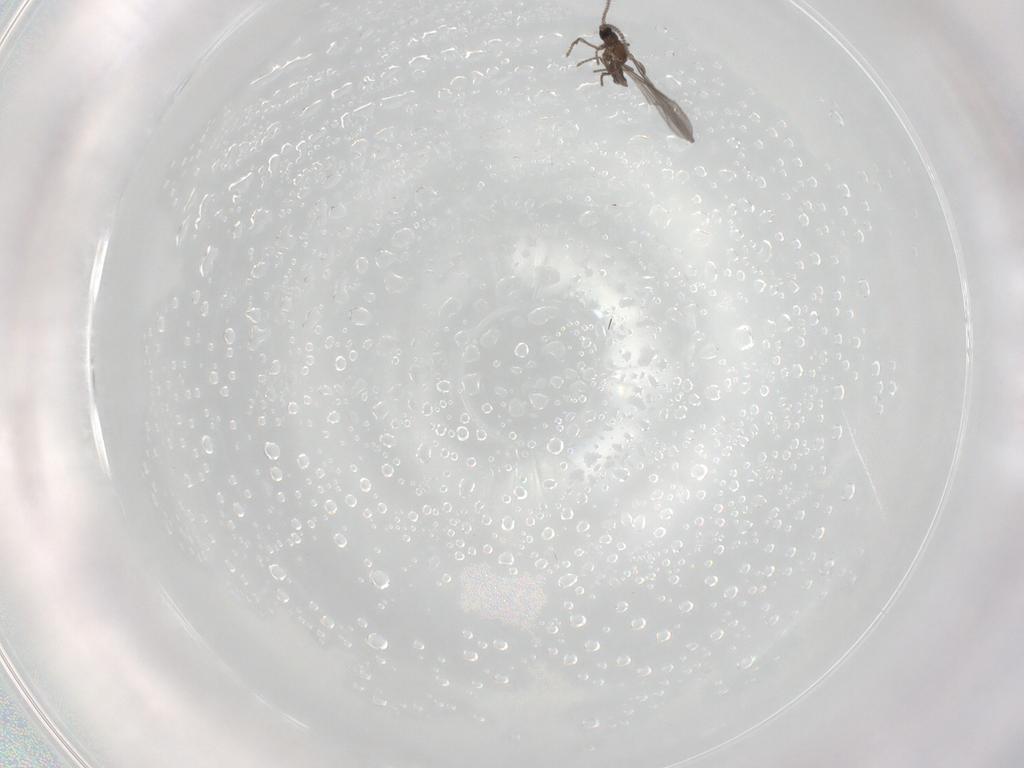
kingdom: Animalia
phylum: Arthropoda
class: Insecta
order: Diptera
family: Sciaridae
